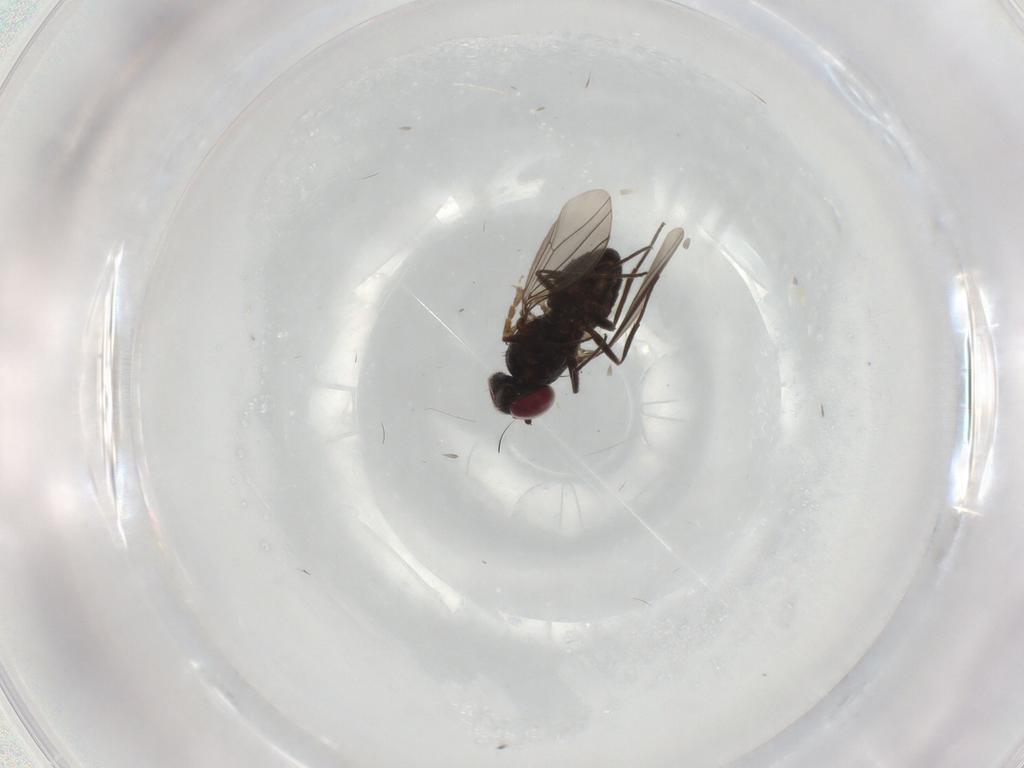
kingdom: Animalia
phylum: Arthropoda
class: Insecta
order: Diptera
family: Dolichopodidae
